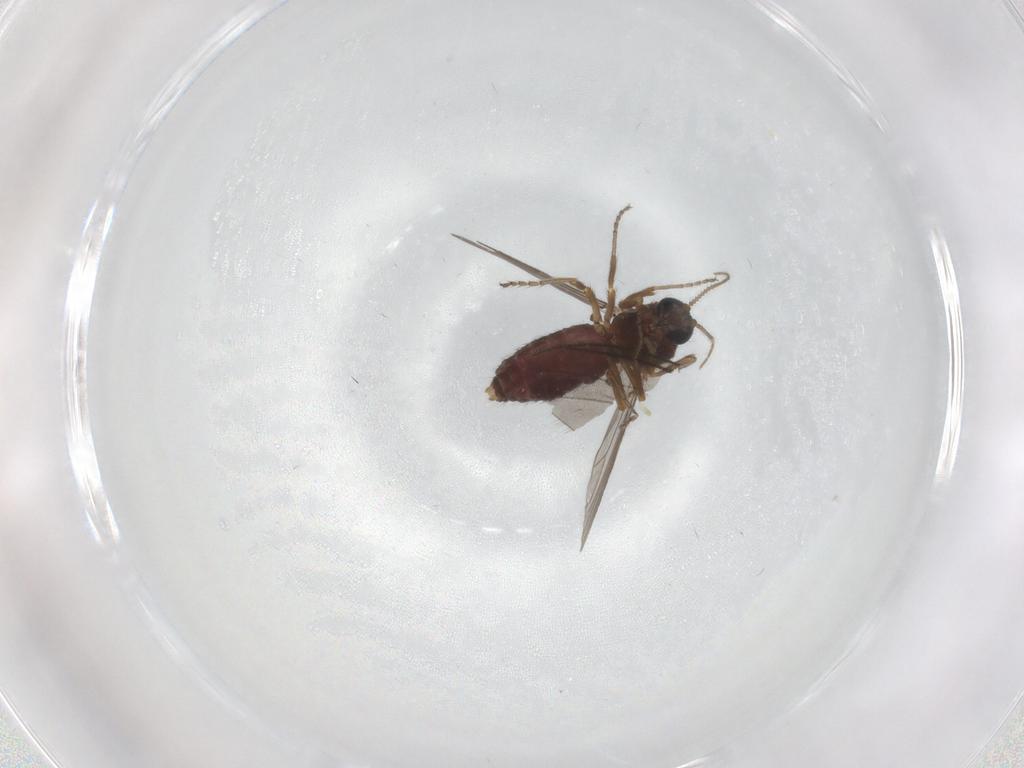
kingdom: Animalia
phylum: Arthropoda
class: Insecta
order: Diptera
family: Ceratopogonidae
